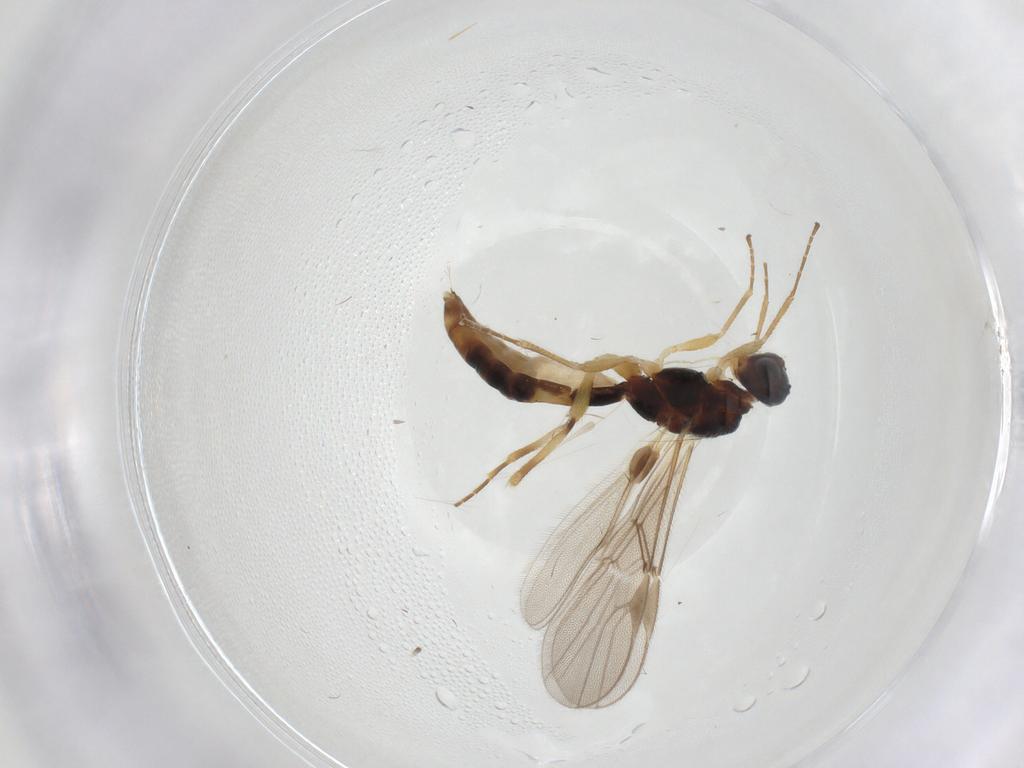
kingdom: Animalia
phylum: Arthropoda
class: Insecta
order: Hymenoptera
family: Braconidae
